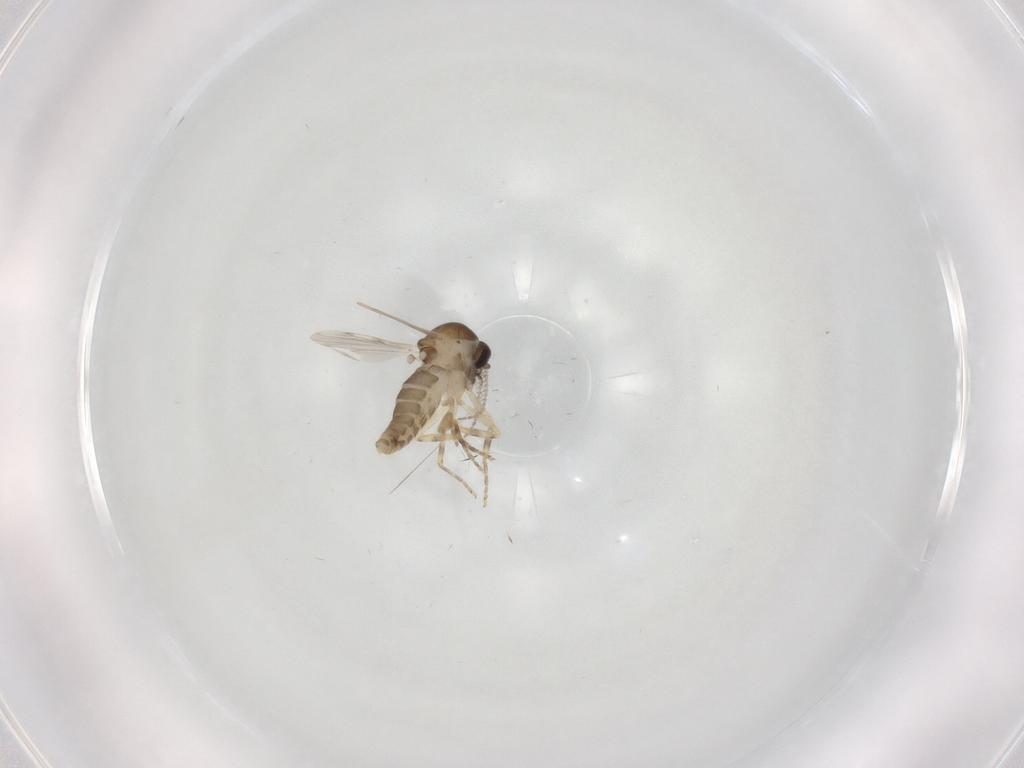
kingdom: Animalia
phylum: Arthropoda
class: Insecta
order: Diptera
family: Ceratopogonidae
